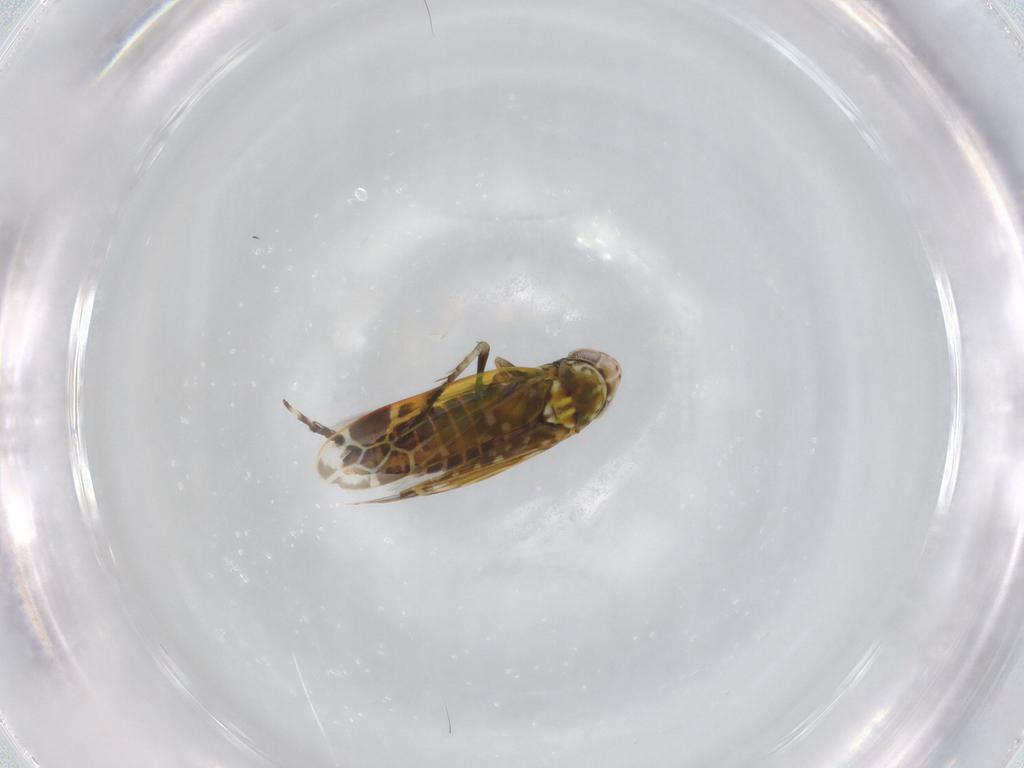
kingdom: Animalia
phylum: Arthropoda
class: Insecta
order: Hemiptera
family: Cicadellidae
